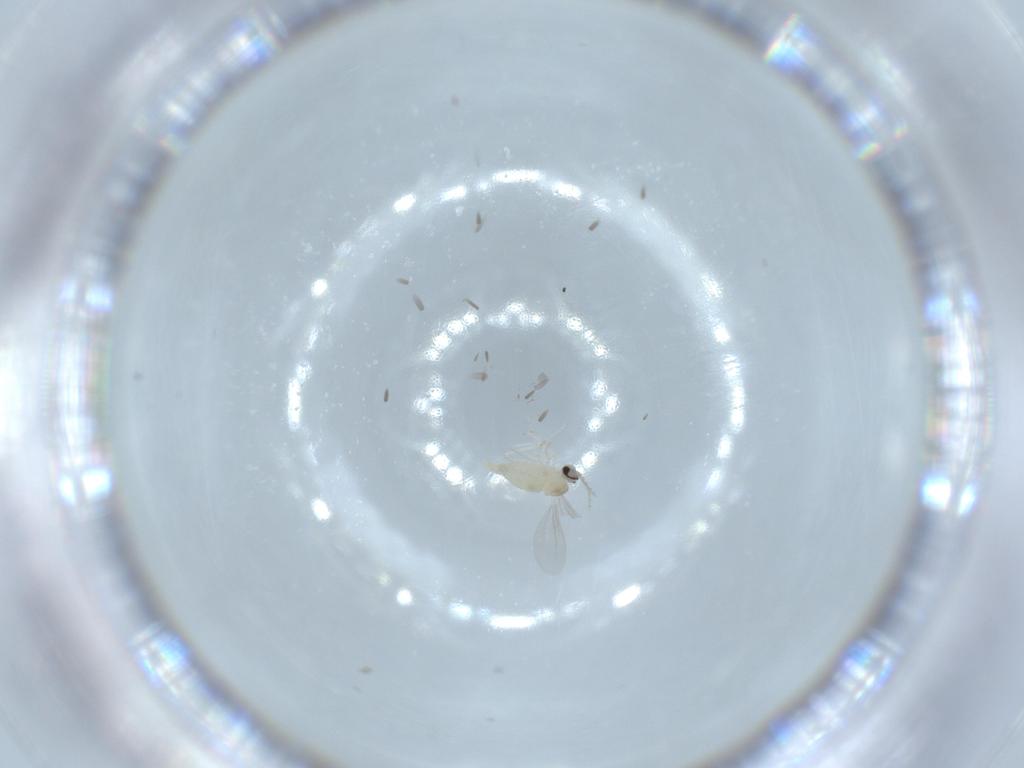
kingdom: Animalia
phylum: Arthropoda
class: Insecta
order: Diptera
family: Cecidomyiidae
